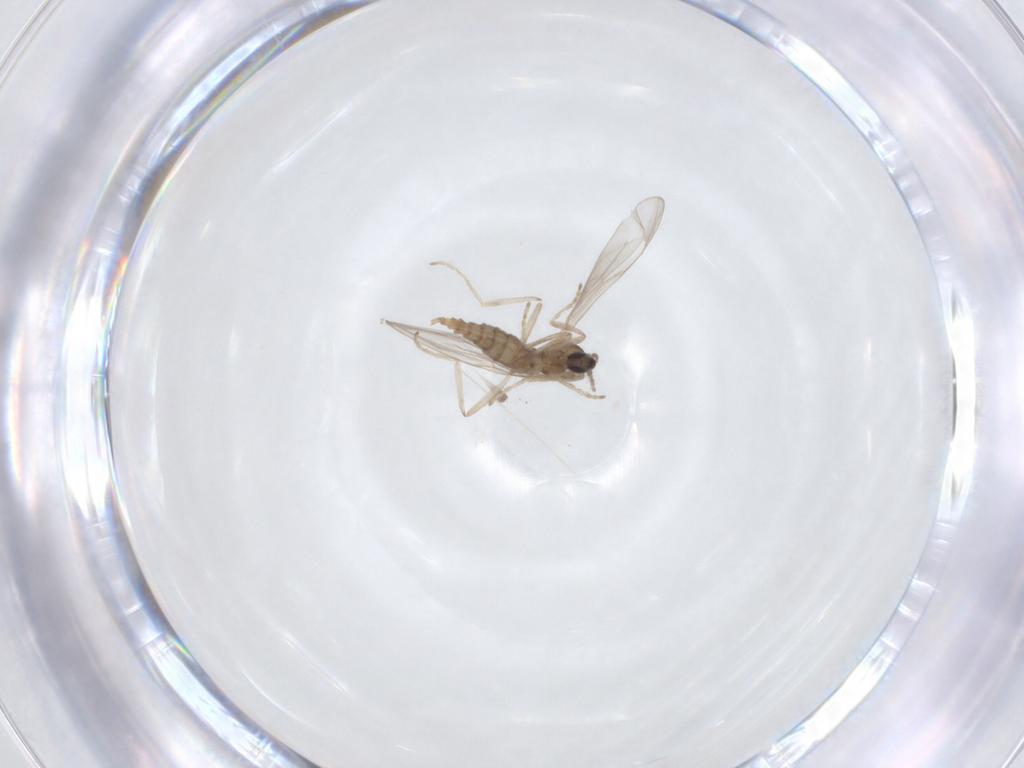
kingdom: Animalia
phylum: Arthropoda
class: Insecta
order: Diptera
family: Cecidomyiidae
